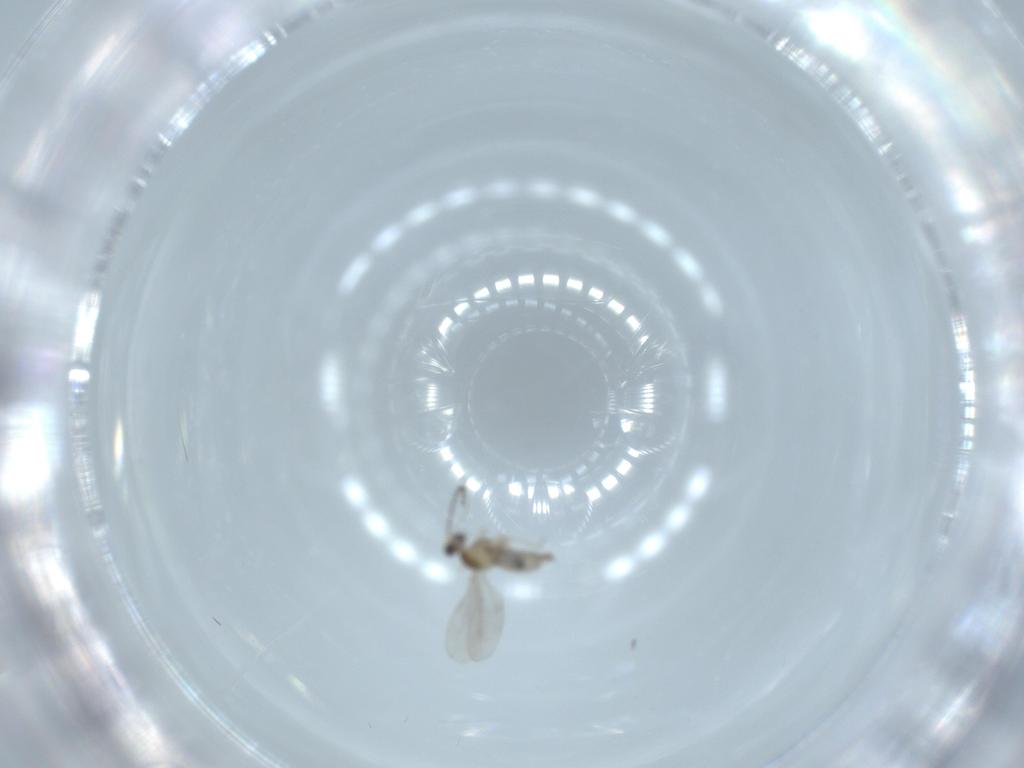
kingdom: Animalia
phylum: Arthropoda
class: Insecta
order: Diptera
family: Cecidomyiidae
